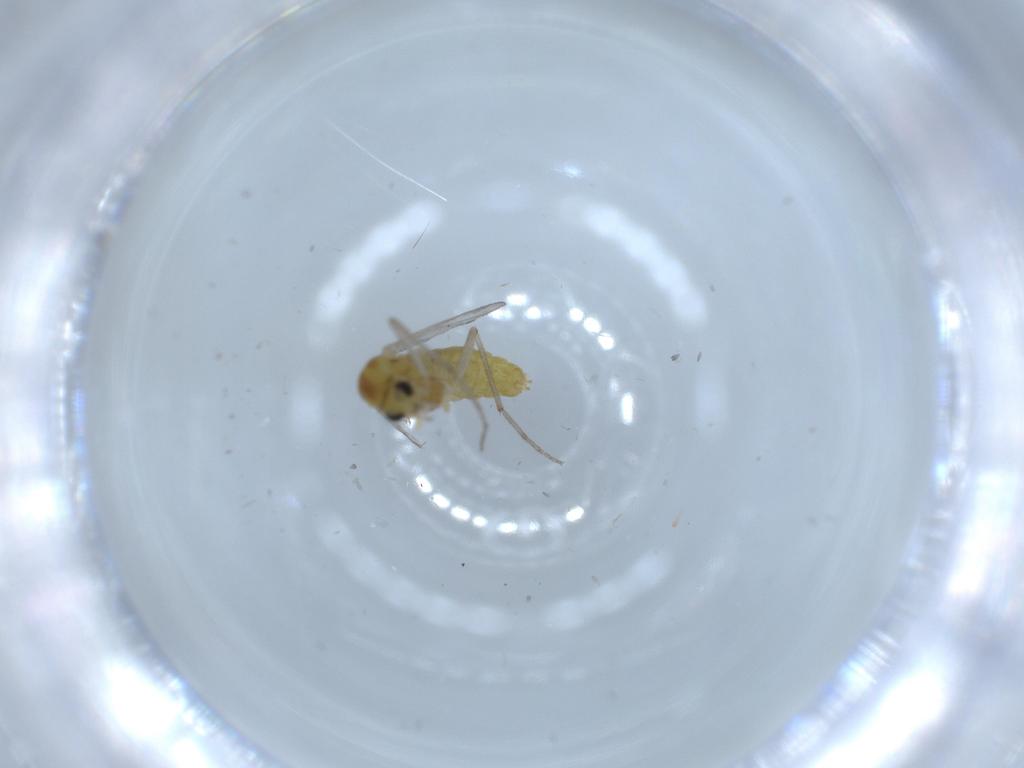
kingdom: Animalia
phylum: Arthropoda
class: Insecta
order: Diptera
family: Chironomidae
